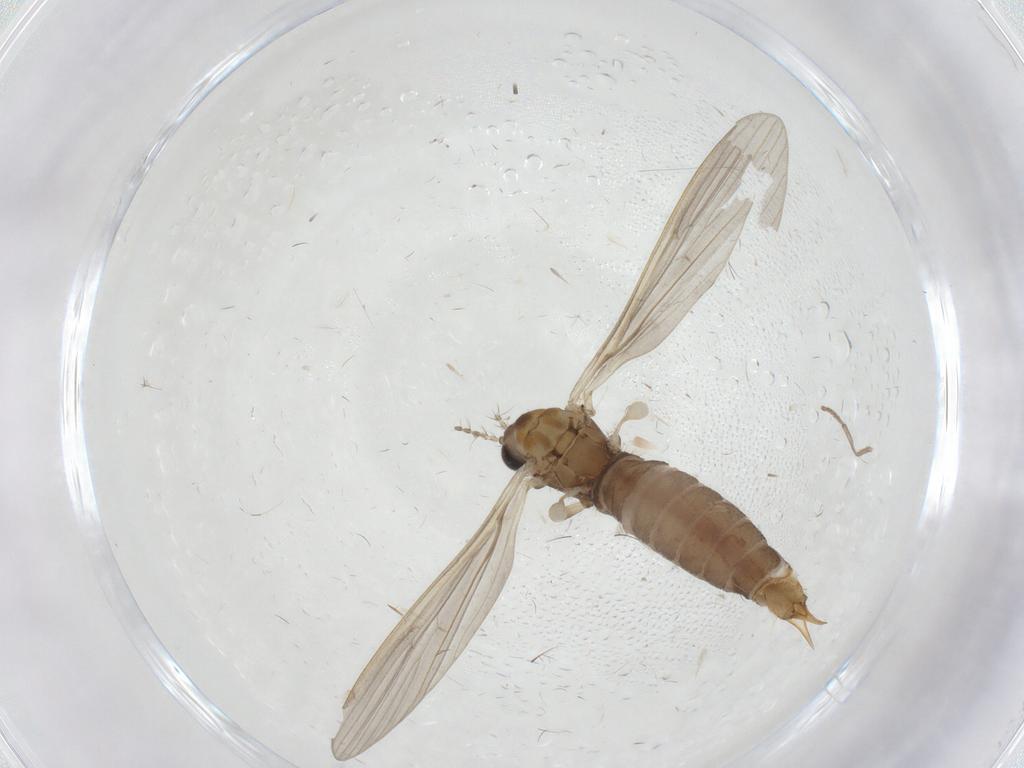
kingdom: Animalia
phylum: Arthropoda
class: Insecta
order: Diptera
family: Limoniidae
